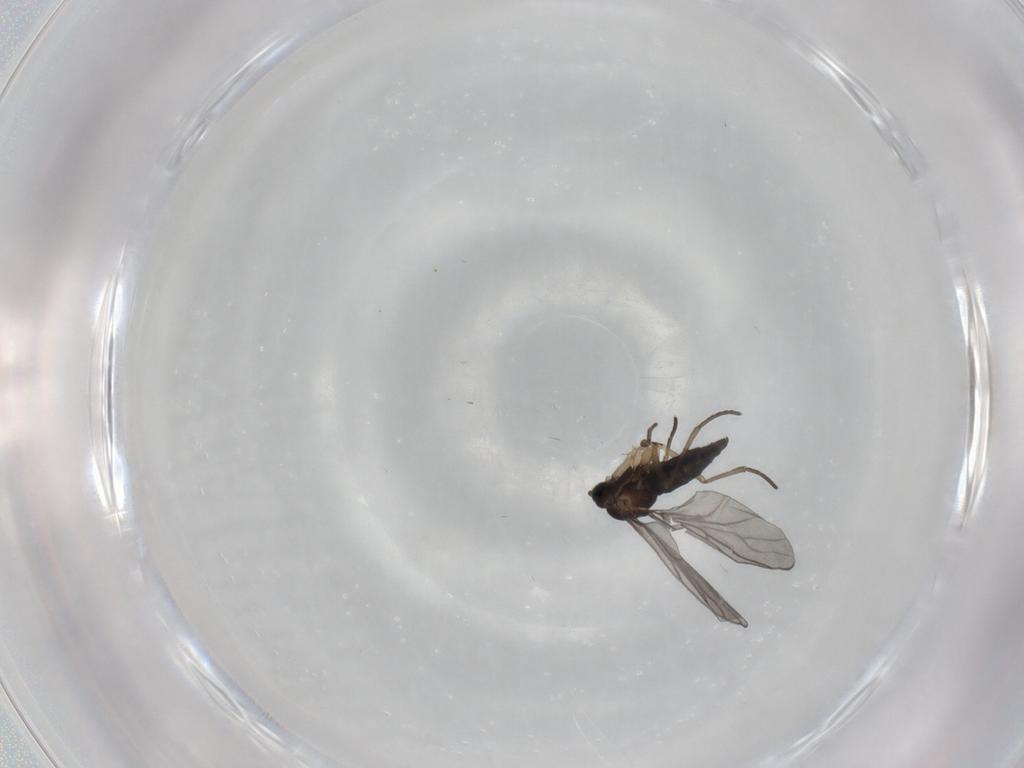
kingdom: Animalia
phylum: Arthropoda
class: Insecta
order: Diptera
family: Sciaridae
